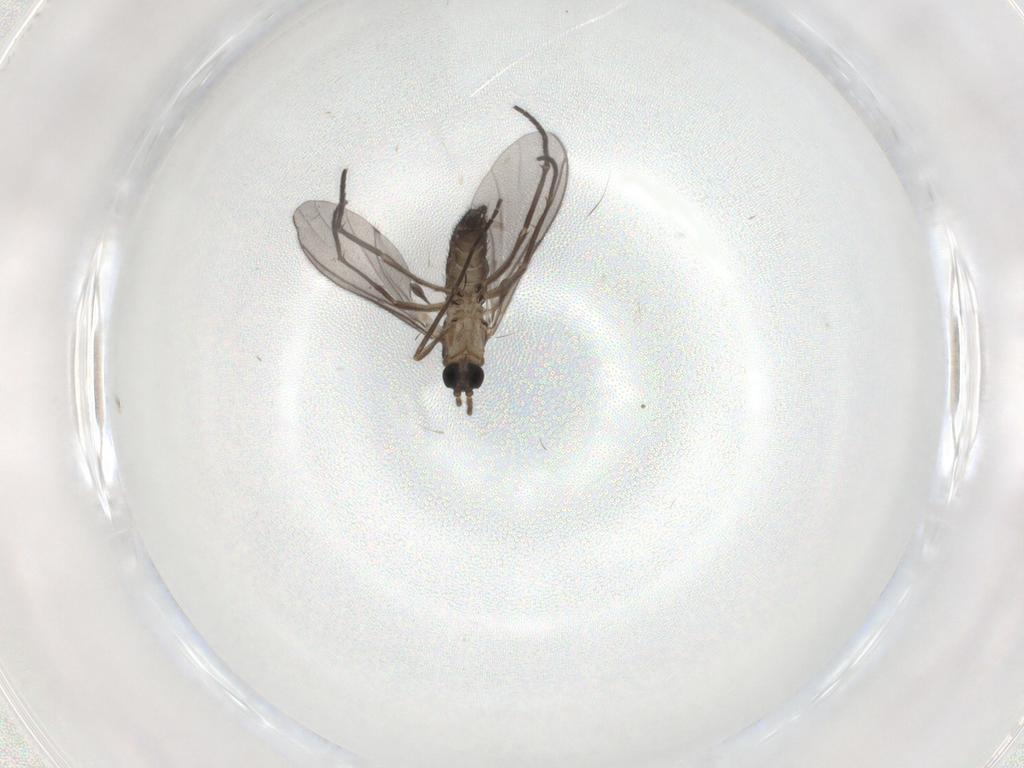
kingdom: Animalia
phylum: Arthropoda
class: Insecta
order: Diptera
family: Sciaridae
